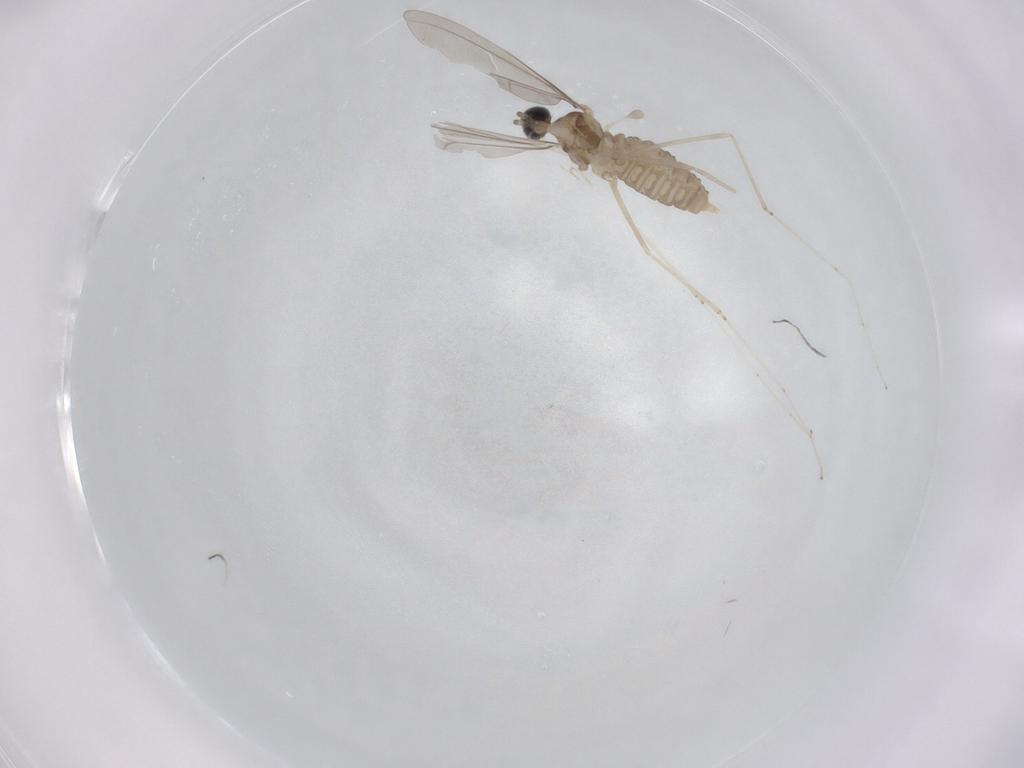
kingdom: Animalia
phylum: Arthropoda
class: Insecta
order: Diptera
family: Cecidomyiidae
